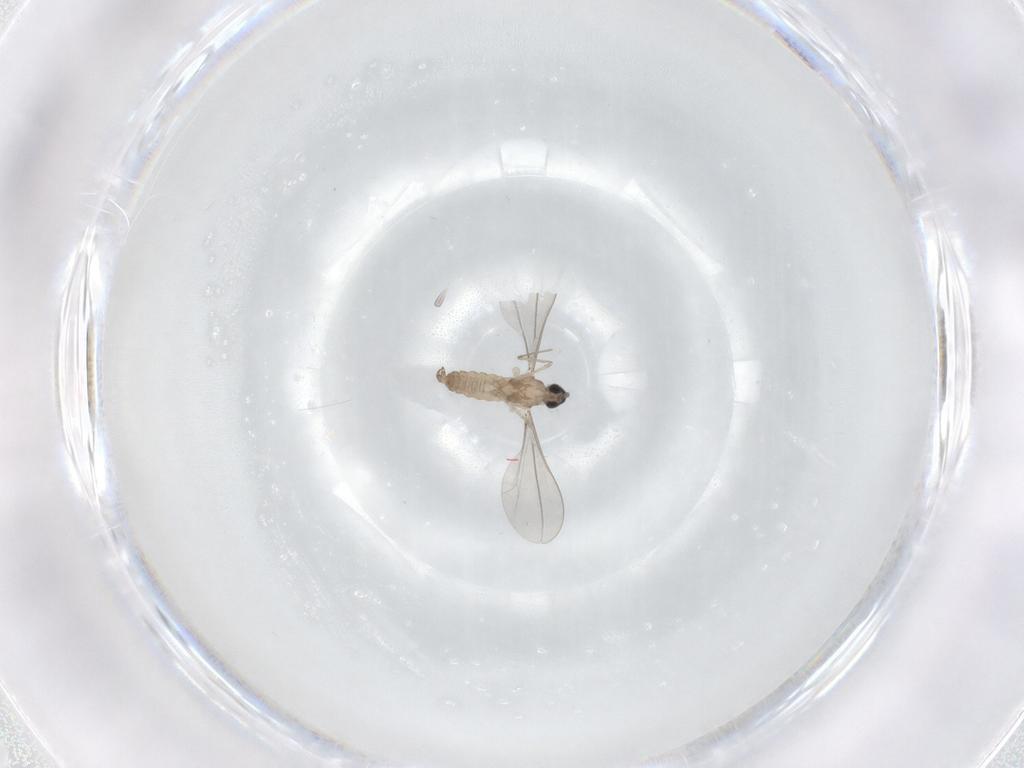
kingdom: Animalia
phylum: Arthropoda
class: Insecta
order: Diptera
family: Cecidomyiidae
